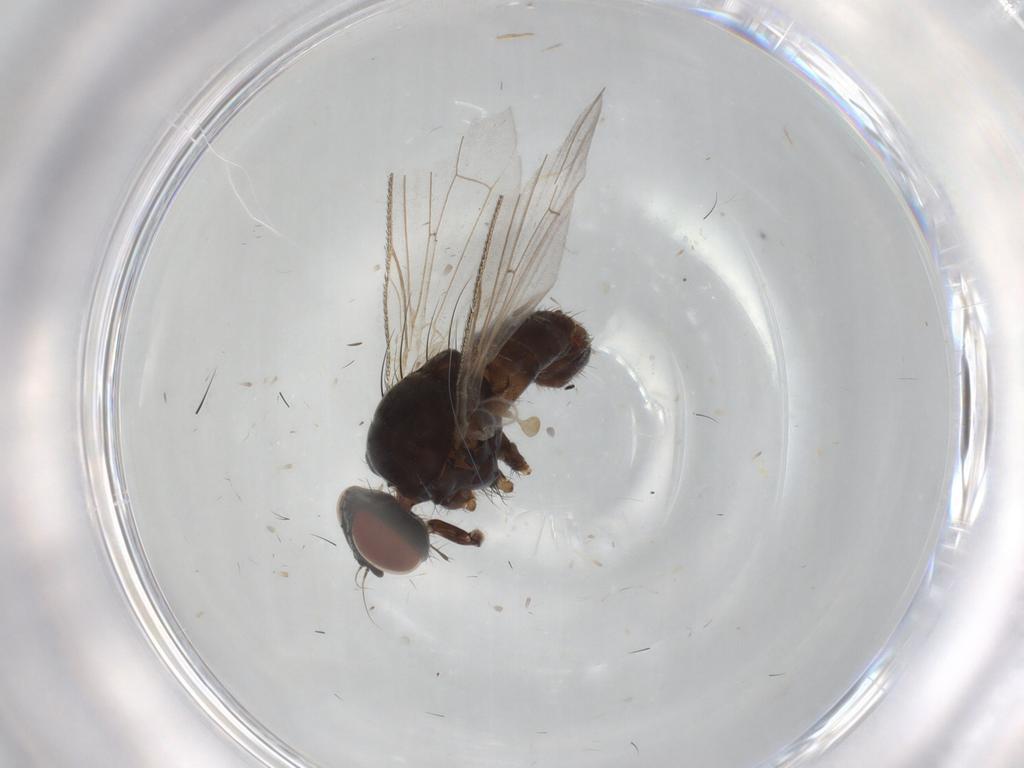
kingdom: Animalia
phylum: Arthropoda
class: Insecta
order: Diptera
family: Muscidae
